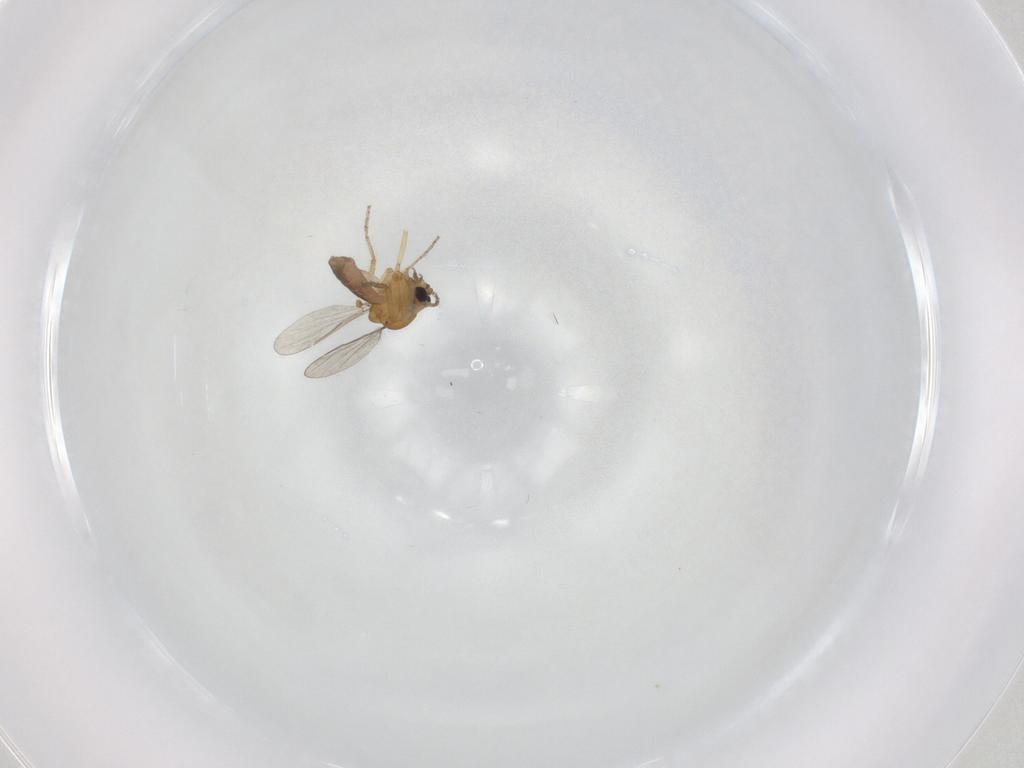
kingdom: Animalia
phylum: Arthropoda
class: Insecta
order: Diptera
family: Ceratopogonidae
